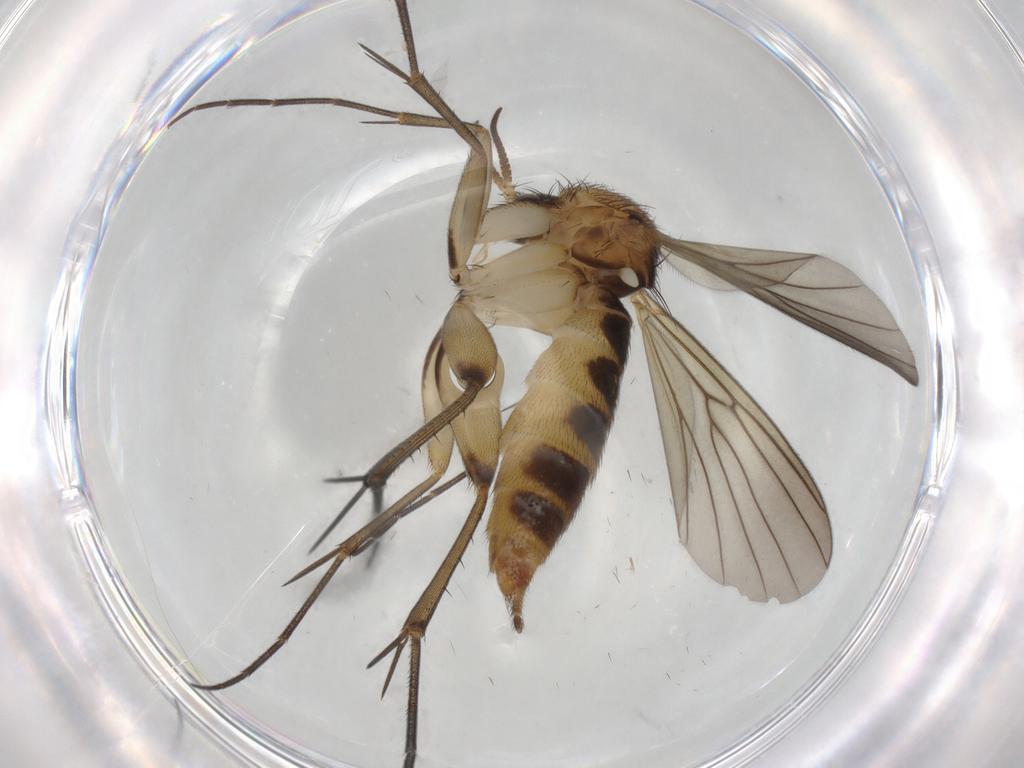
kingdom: Animalia
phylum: Arthropoda
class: Insecta
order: Diptera
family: Mycetophilidae
